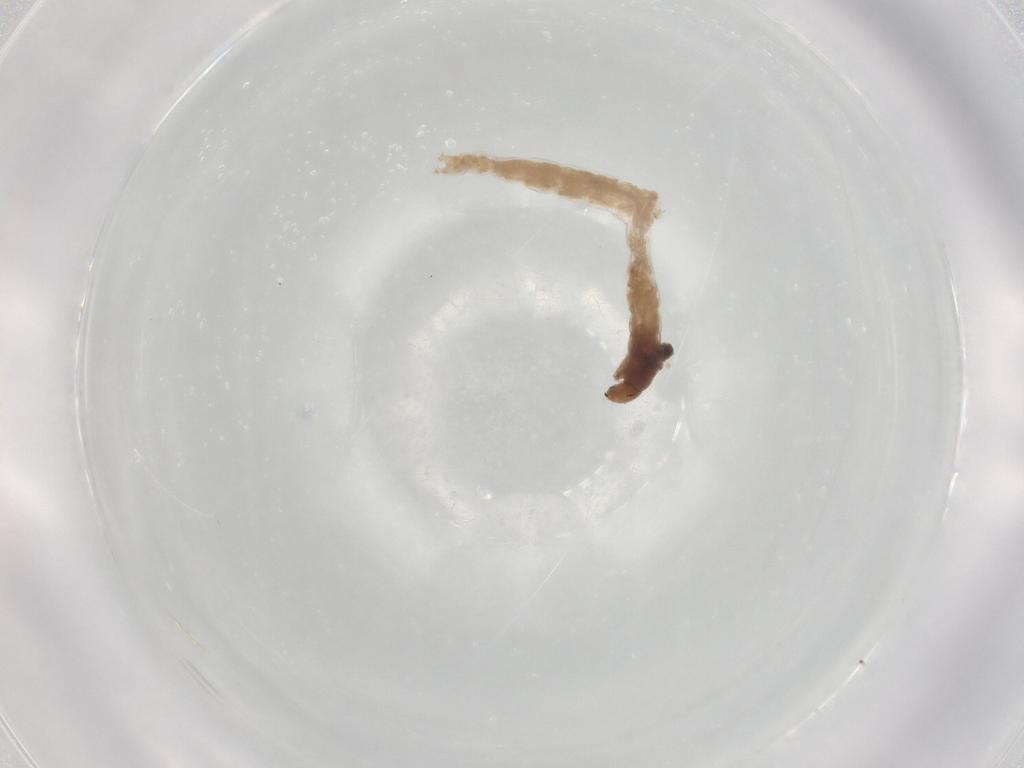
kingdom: Animalia
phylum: Arthropoda
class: Insecta
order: Diptera
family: Chironomidae
